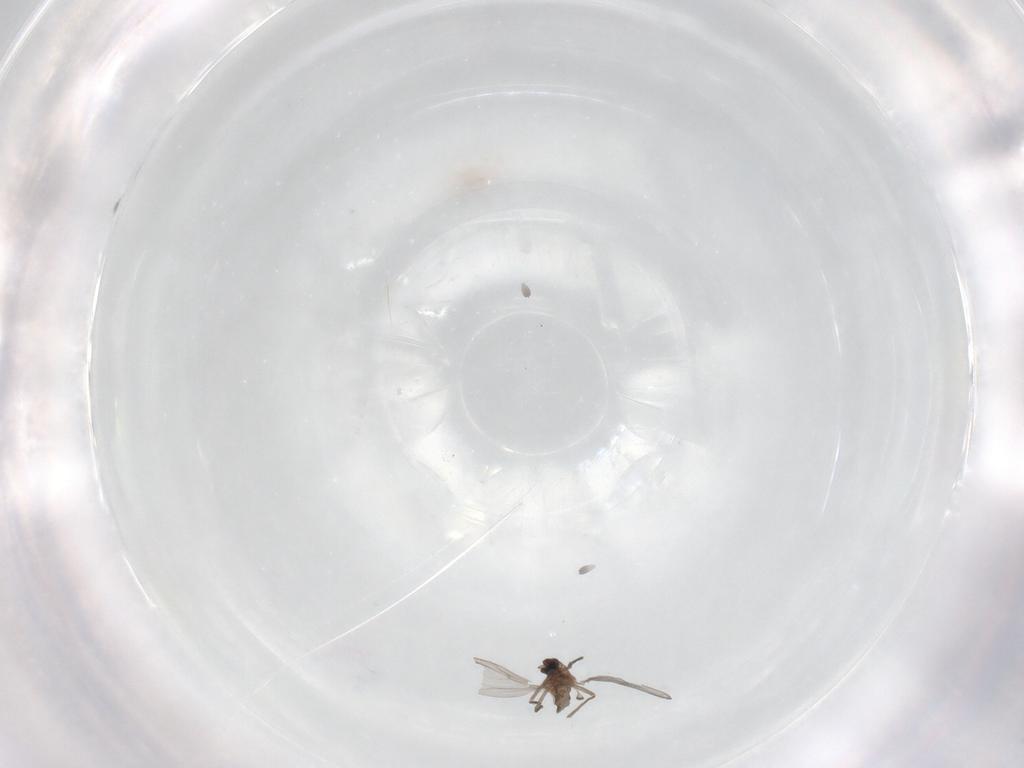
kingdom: Animalia
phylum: Arthropoda
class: Insecta
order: Diptera
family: Chironomidae
